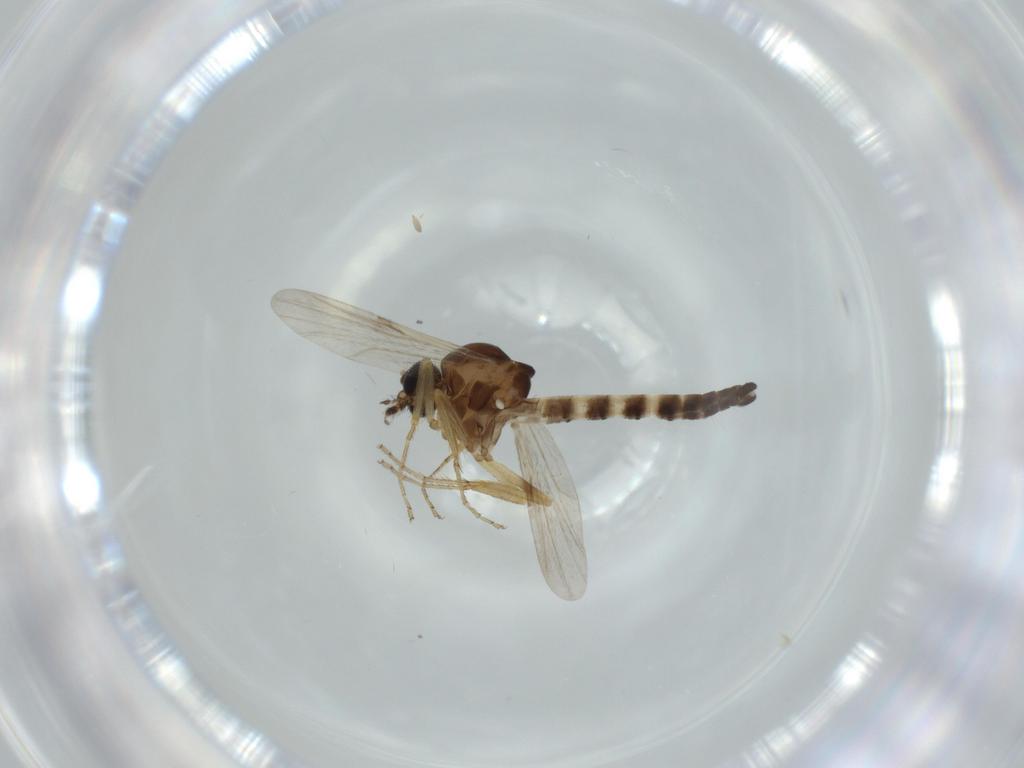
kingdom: Animalia
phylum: Arthropoda
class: Insecta
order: Diptera
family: Ceratopogonidae
